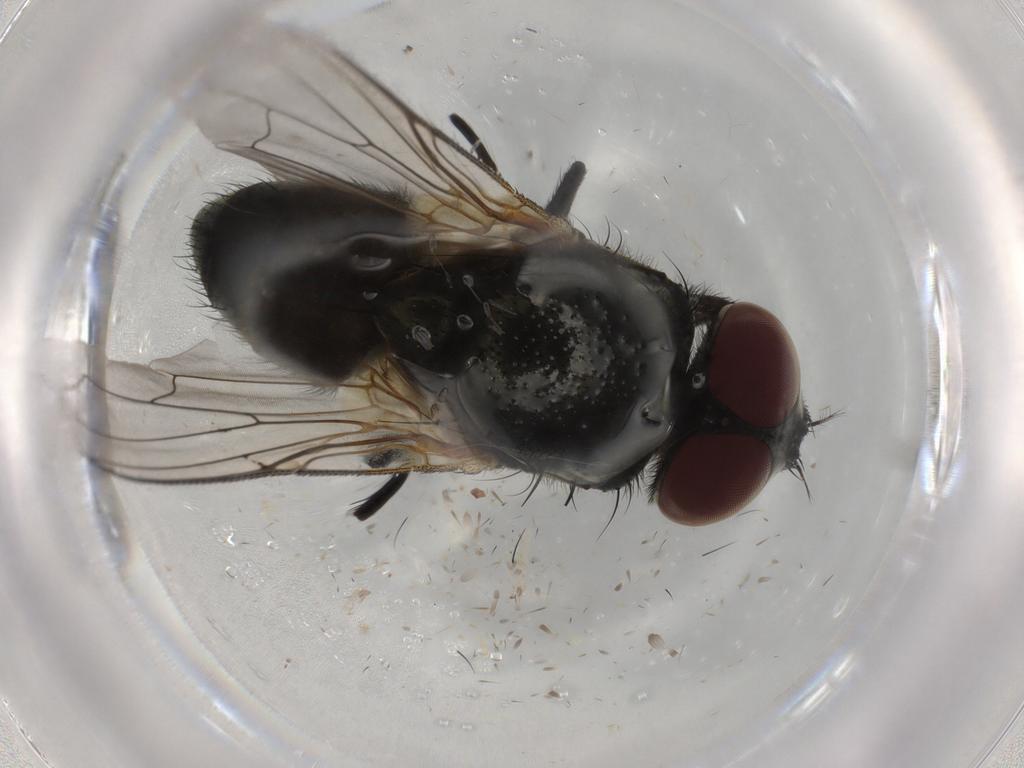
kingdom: Animalia
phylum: Arthropoda
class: Insecta
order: Diptera
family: Muscidae
